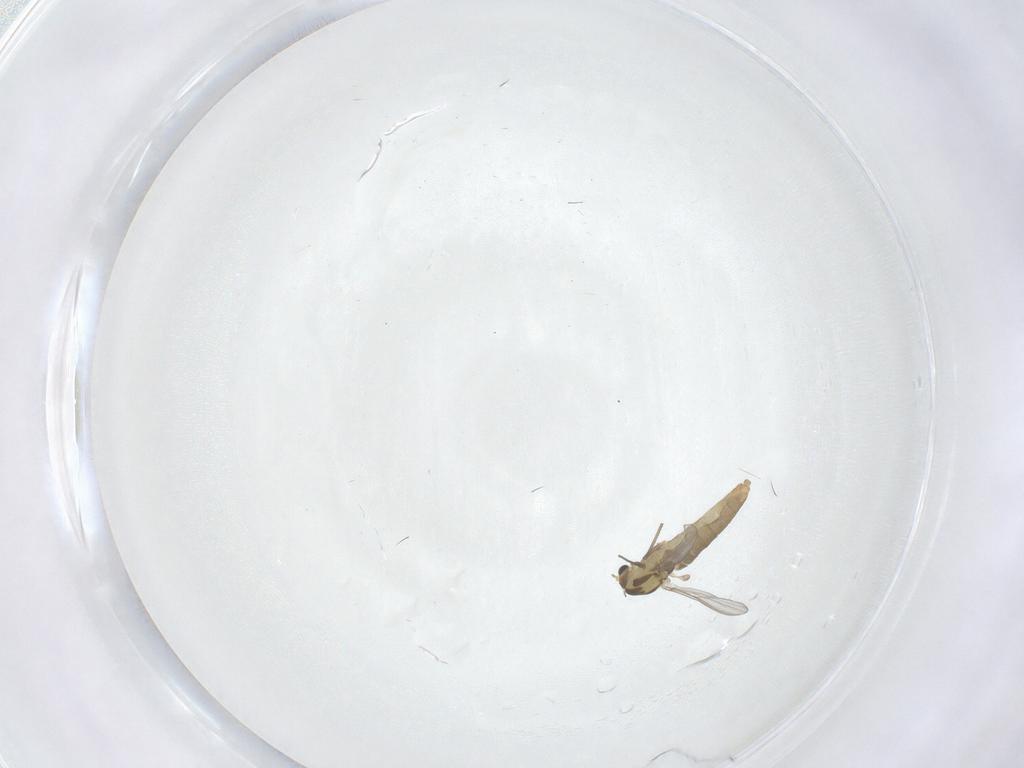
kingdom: Animalia
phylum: Arthropoda
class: Insecta
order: Diptera
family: Chironomidae
